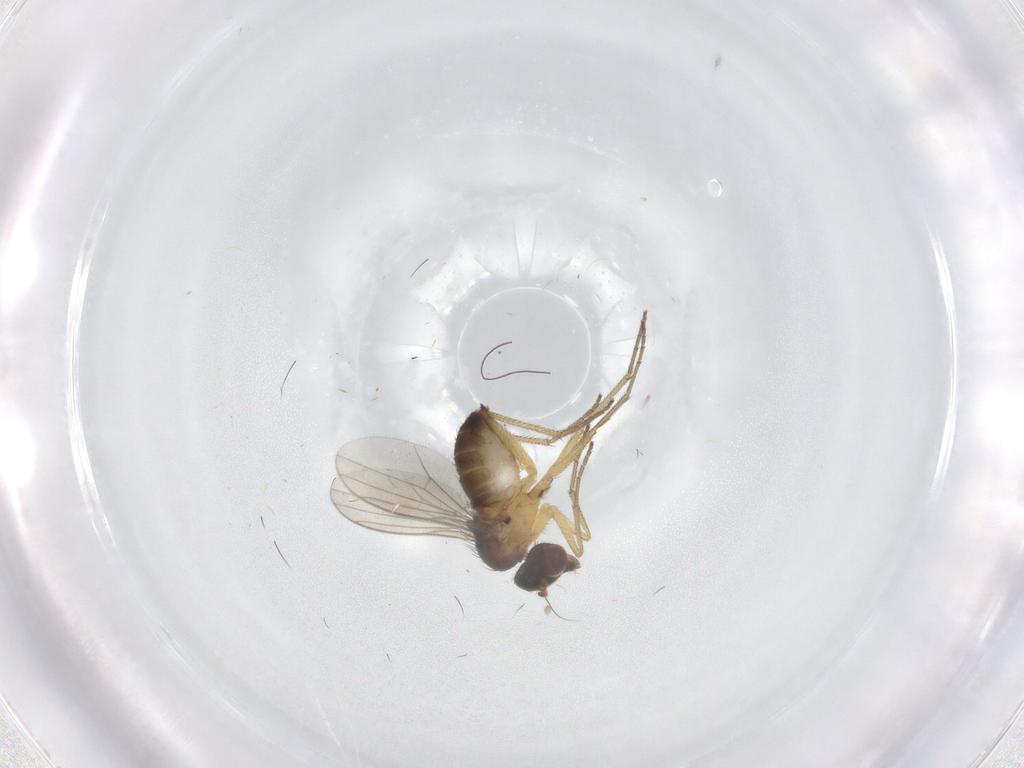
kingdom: Animalia
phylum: Arthropoda
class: Insecta
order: Diptera
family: Dolichopodidae
